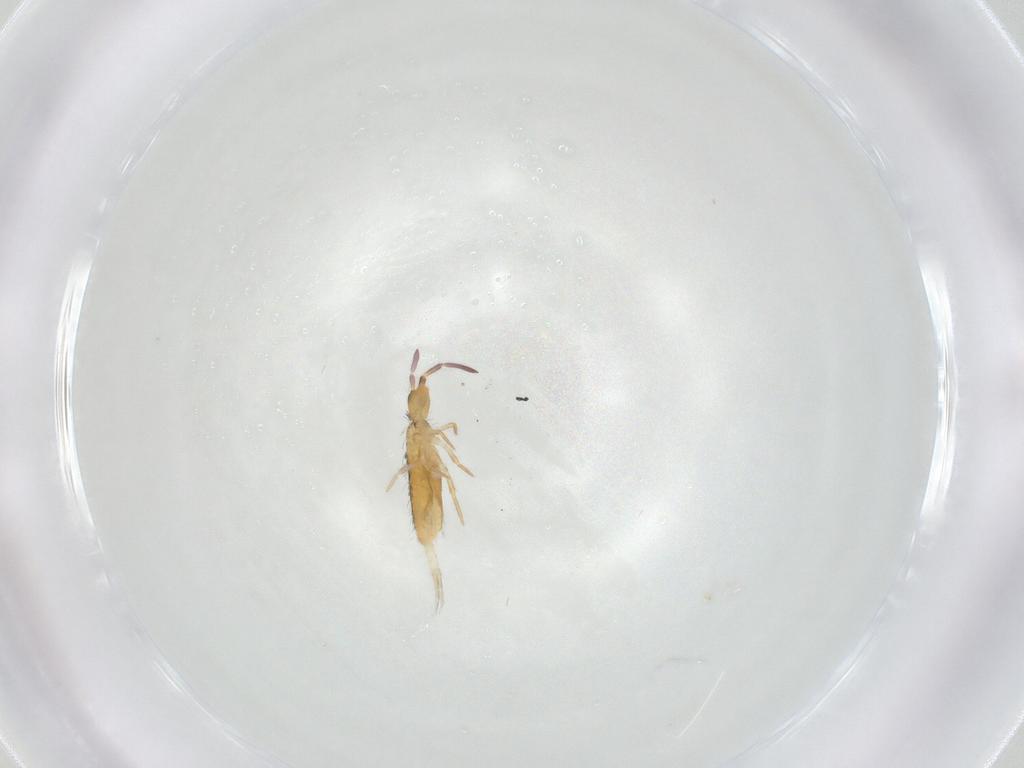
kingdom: Animalia
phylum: Arthropoda
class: Collembola
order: Entomobryomorpha
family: Entomobryidae
